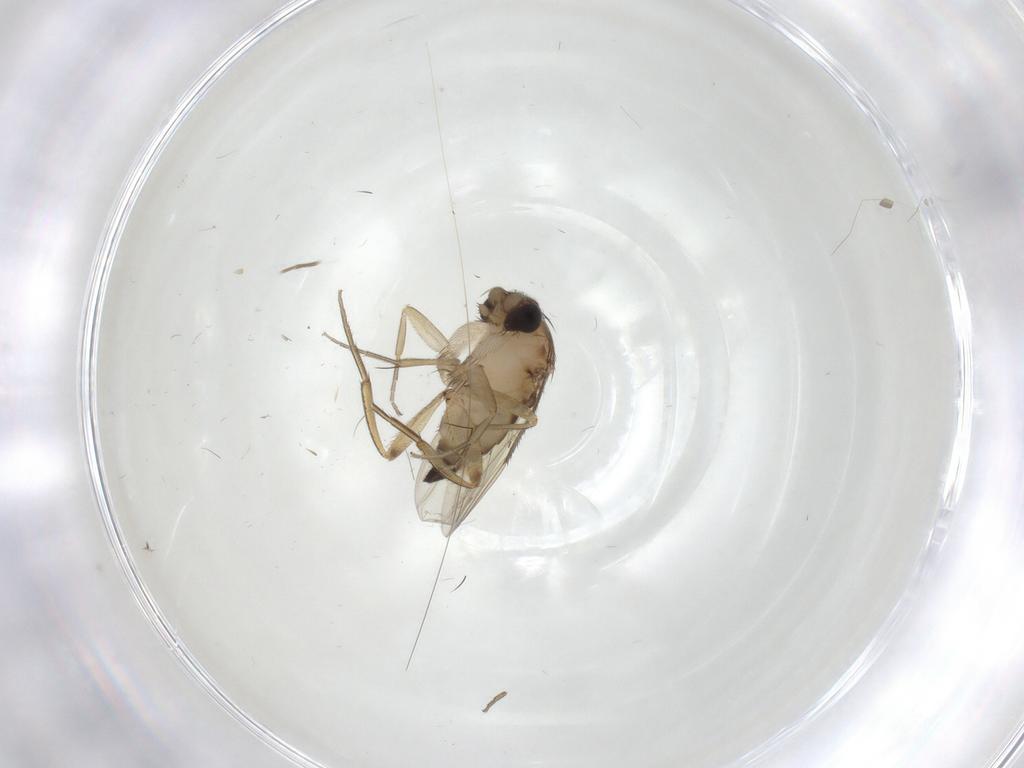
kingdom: Animalia
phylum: Arthropoda
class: Insecta
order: Diptera
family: Phoridae
